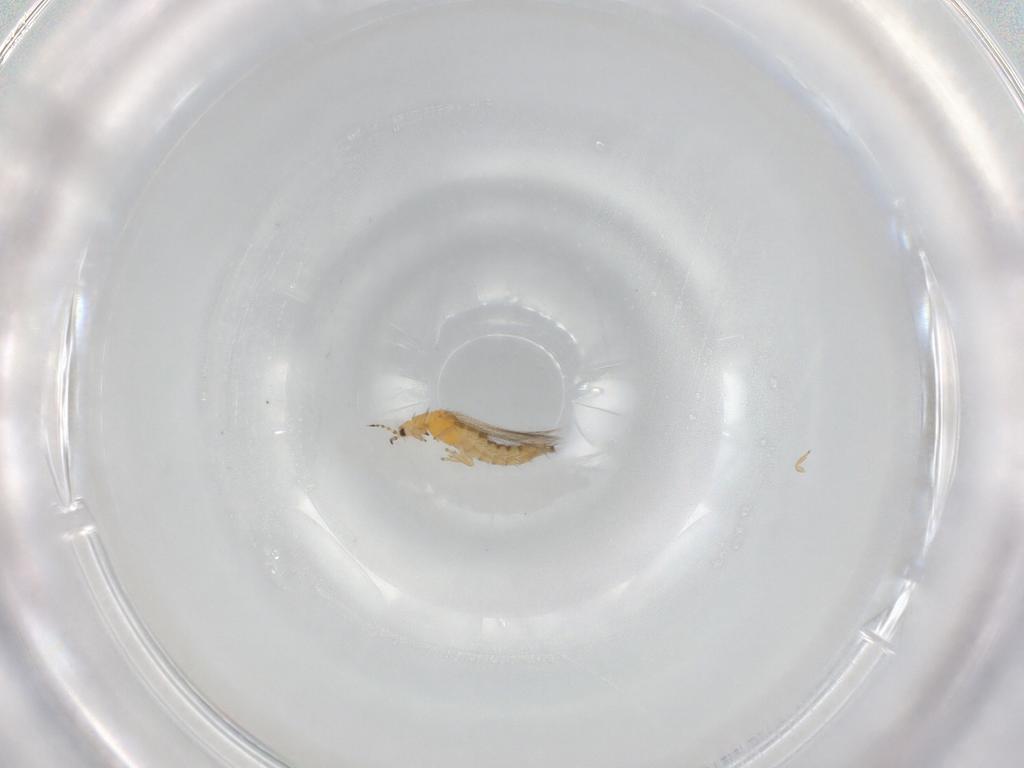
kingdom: Animalia
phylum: Arthropoda
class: Insecta
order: Thysanoptera
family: Thripidae
